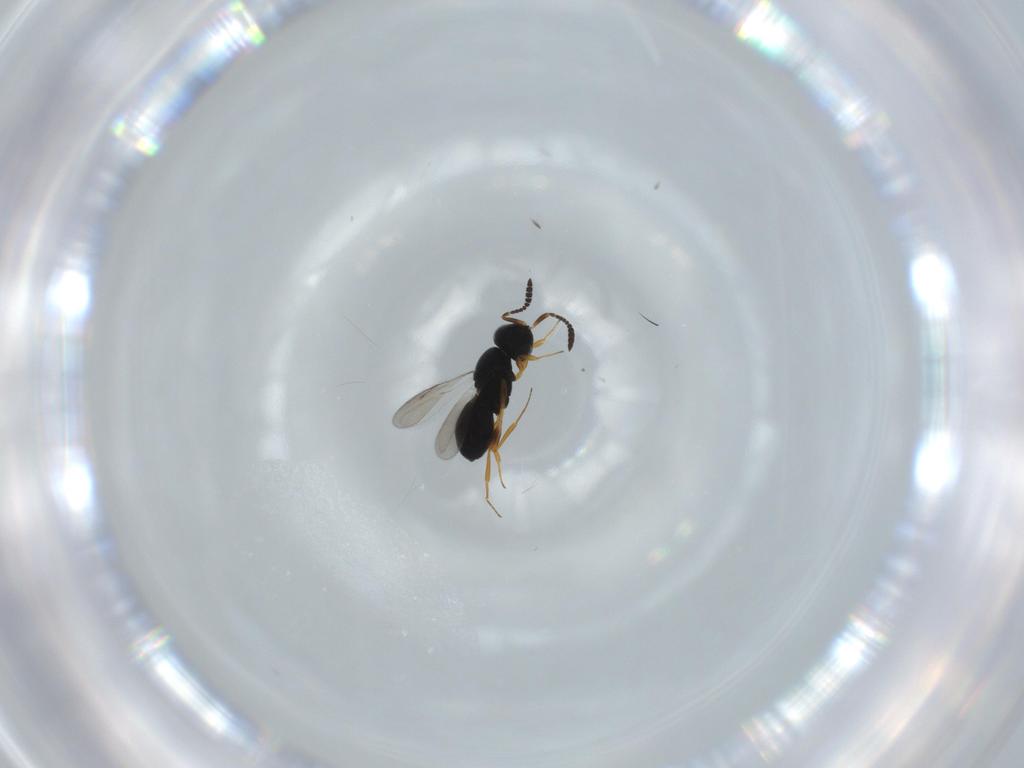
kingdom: Animalia
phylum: Arthropoda
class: Insecta
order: Hymenoptera
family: Scelionidae
